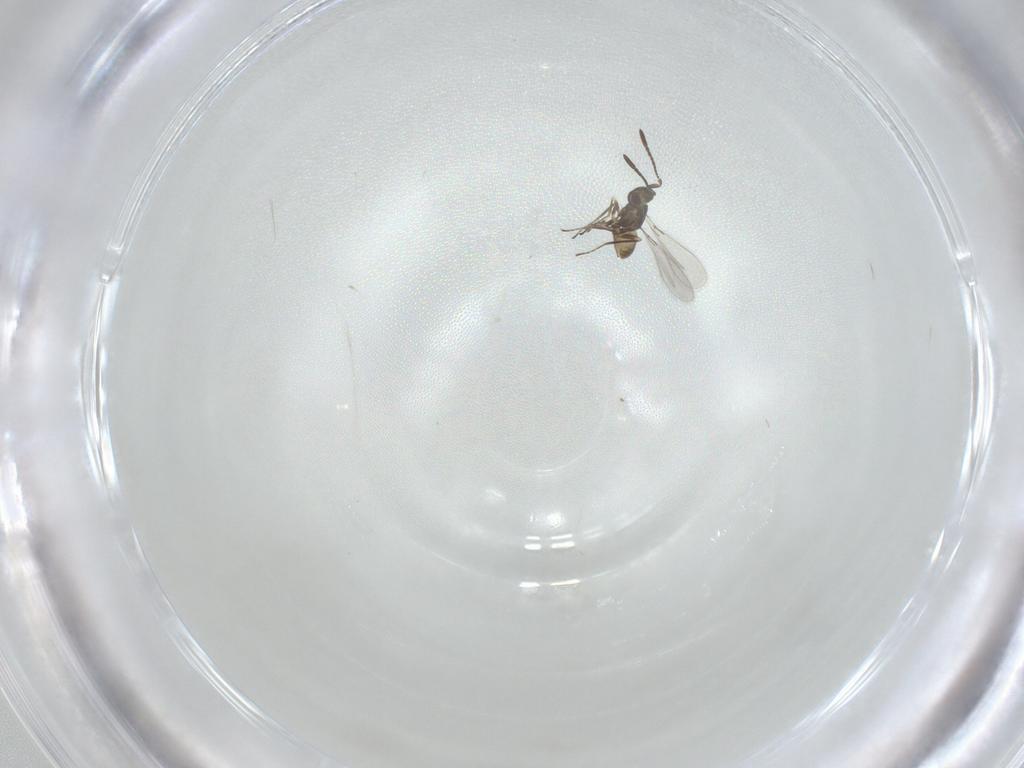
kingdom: Animalia
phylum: Arthropoda
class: Insecta
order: Hymenoptera
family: Mymaridae
